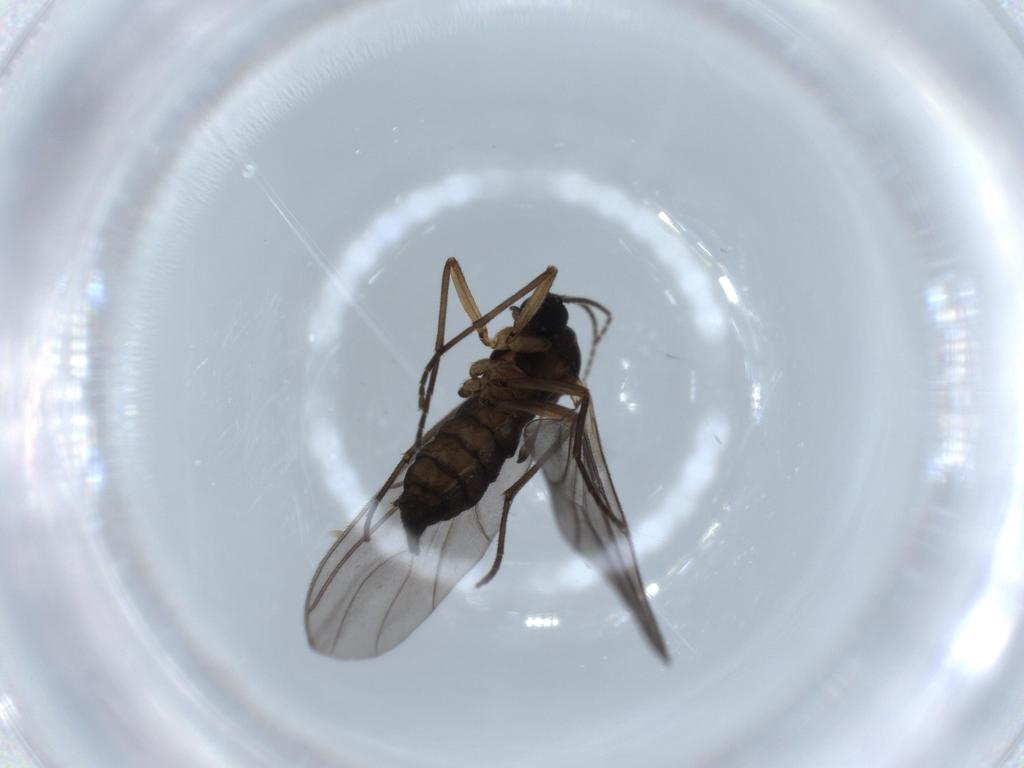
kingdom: Animalia
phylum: Arthropoda
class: Insecta
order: Diptera
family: Sciaridae
